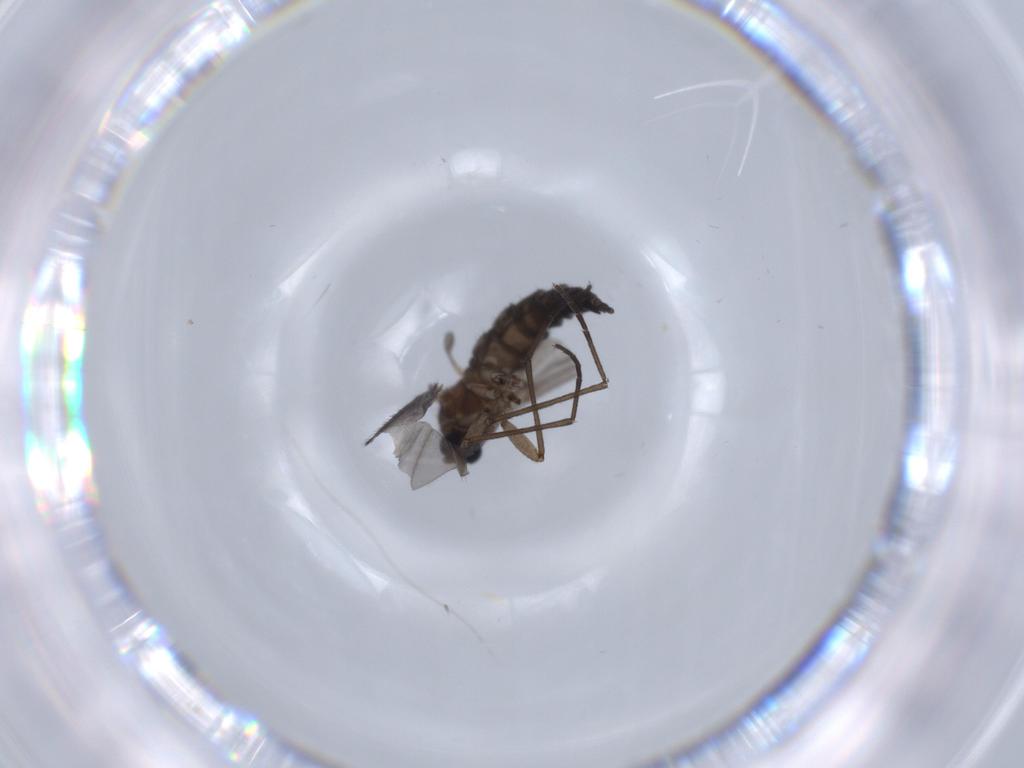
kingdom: Animalia
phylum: Arthropoda
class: Insecta
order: Diptera
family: Sciaridae
